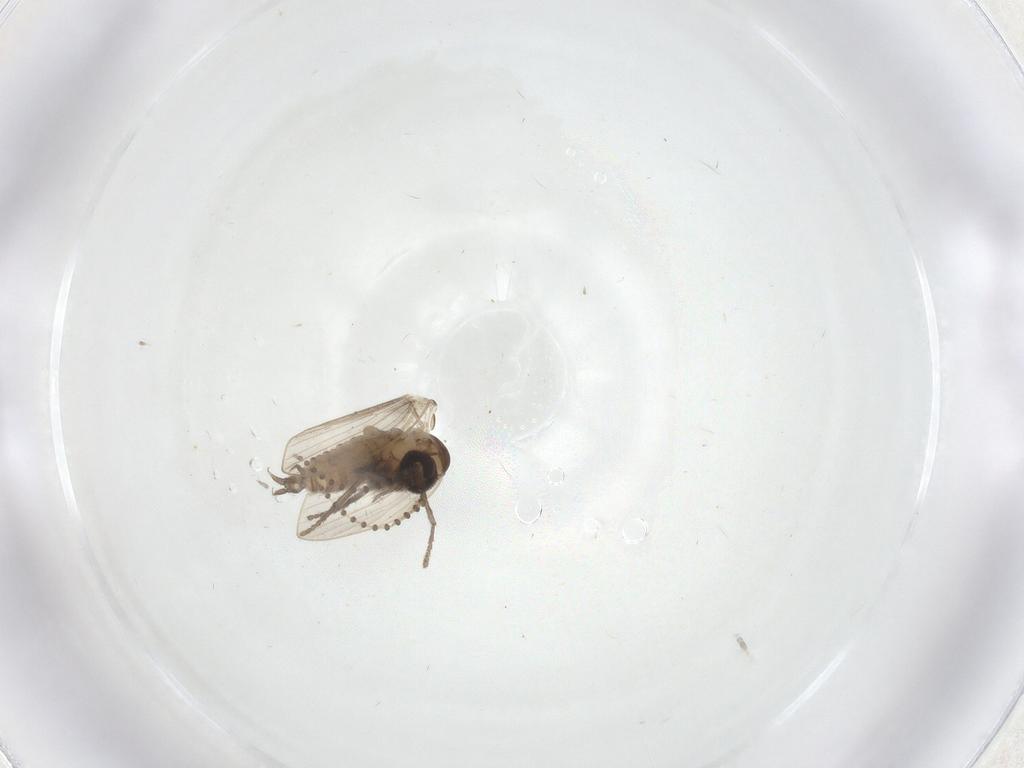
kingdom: Animalia
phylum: Arthropoda
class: Insecta
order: Diptera
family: Psychodidae
